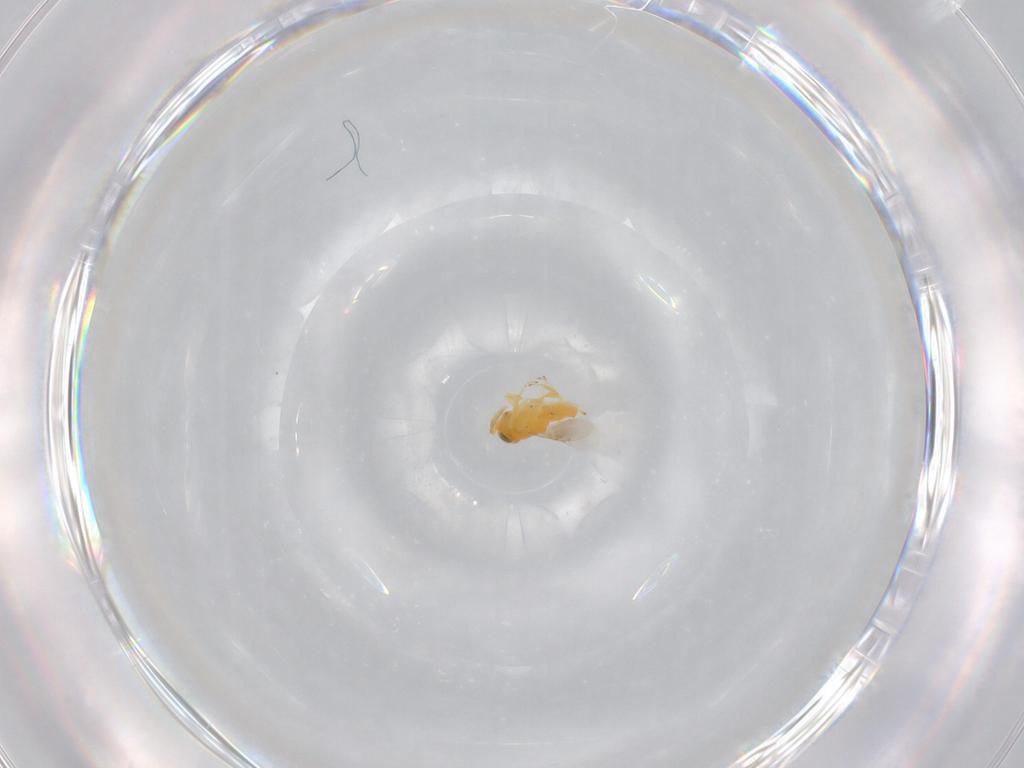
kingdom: Animalia
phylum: Arthropoda
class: Insecta
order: Hymenoptera
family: Encyrtidae
